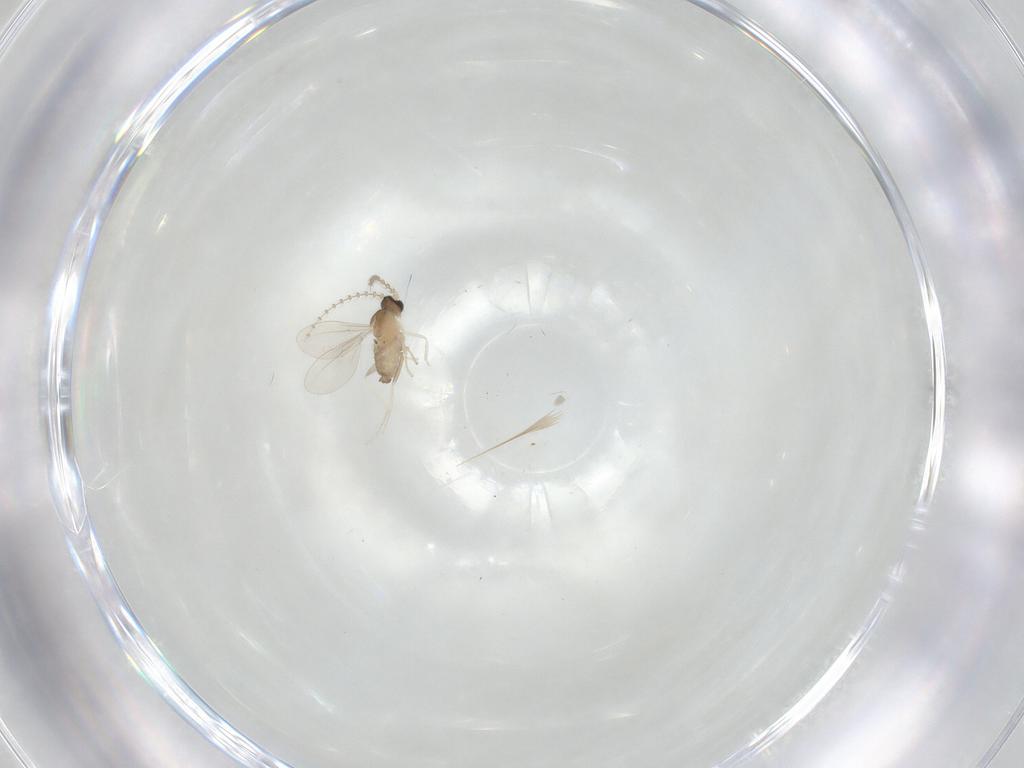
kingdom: Animalia
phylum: Arthropoda
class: Insecta
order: Diptera
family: Cecidomyiidae
